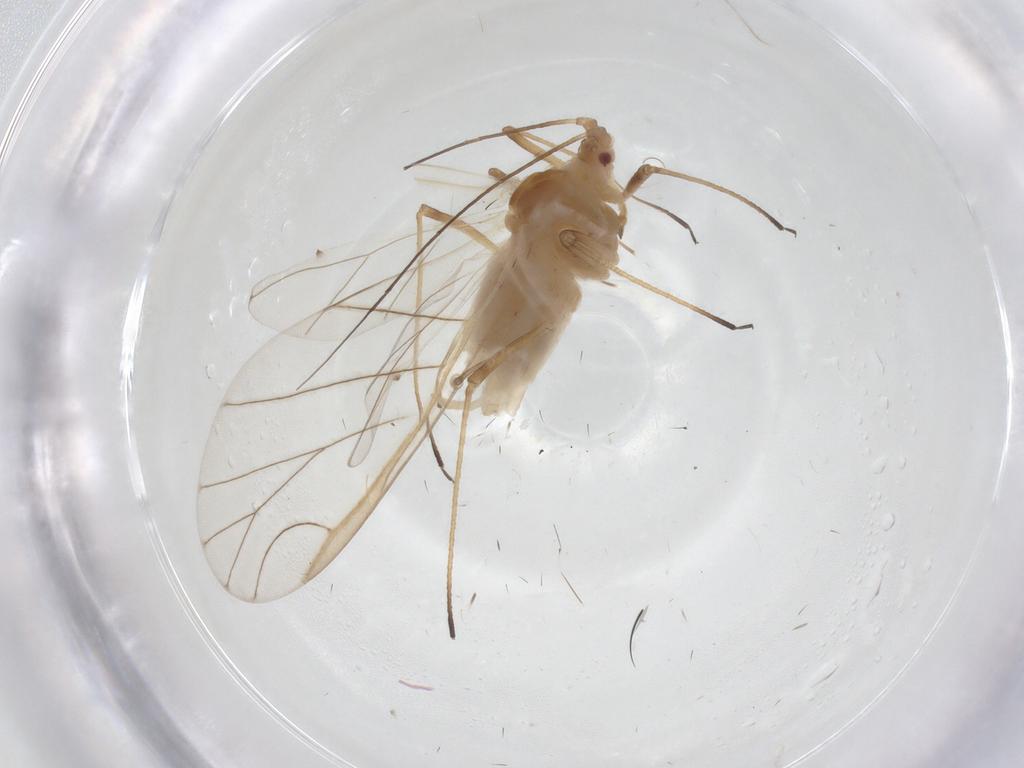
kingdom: Animalia
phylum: Arthropoda
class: Insecta
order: Hemiptera
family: Aphididae
